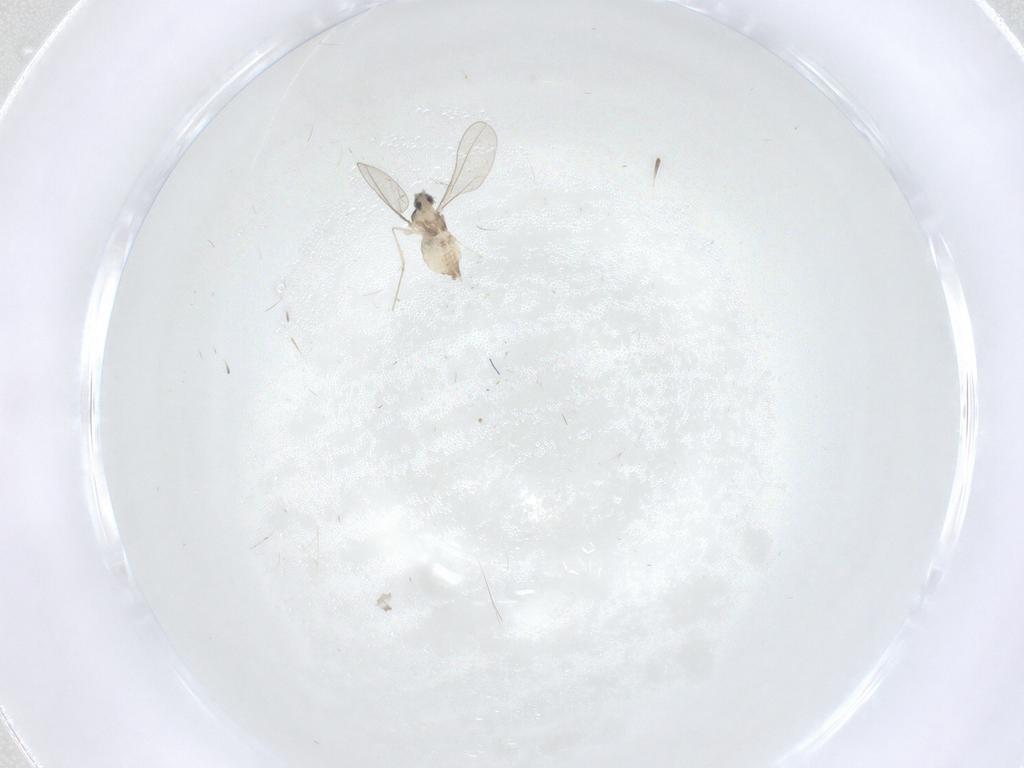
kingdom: Animalia
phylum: Arthropoda
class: Insecta
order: Diptera
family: Cecidomyiidae
